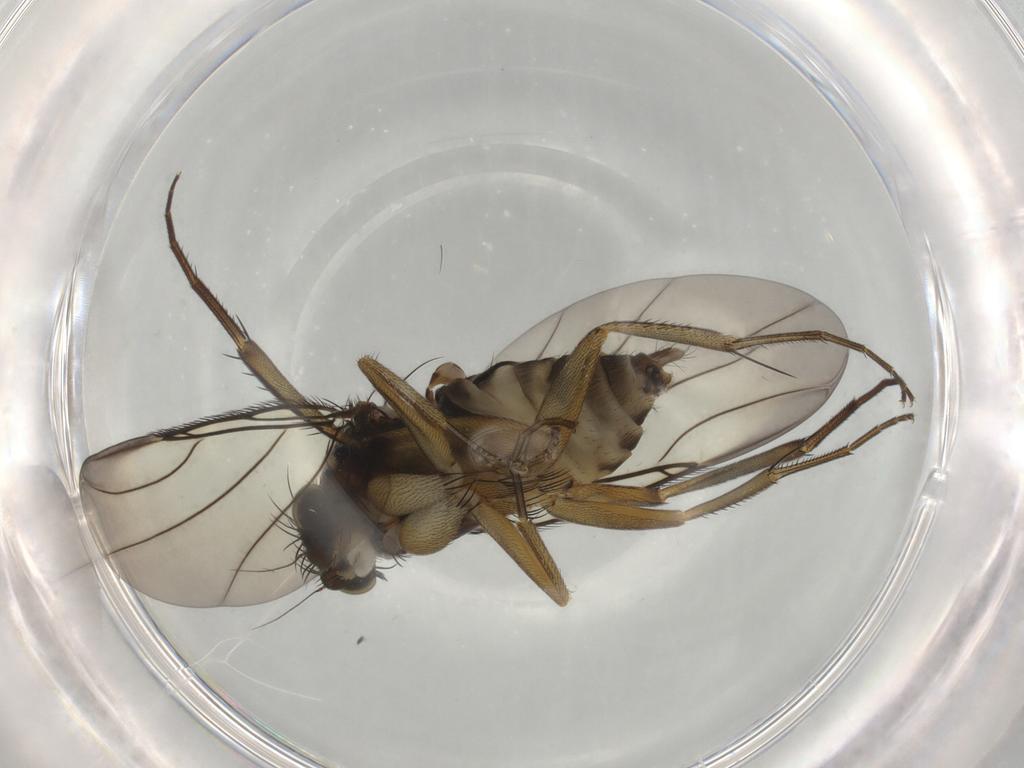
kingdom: Animalia
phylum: Arthropoda
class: Insecta
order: Diptera
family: Phoridae
